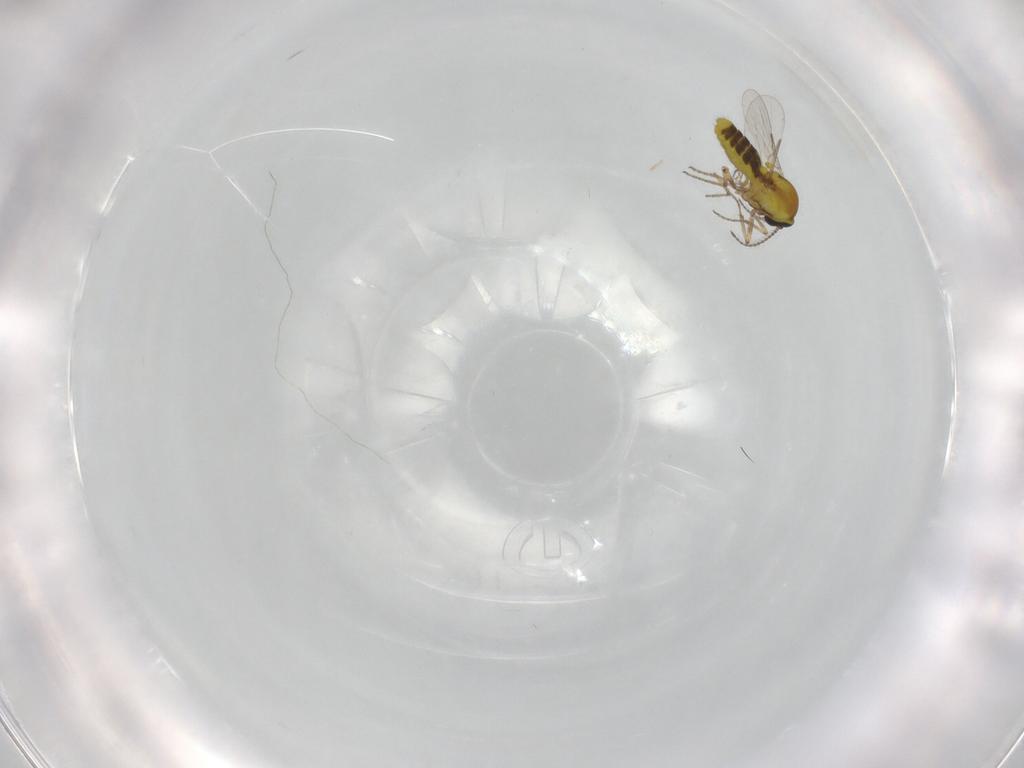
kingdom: Animalia
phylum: Arthropoda
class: Insecta
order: Diptera
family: Ceratopogonidae
